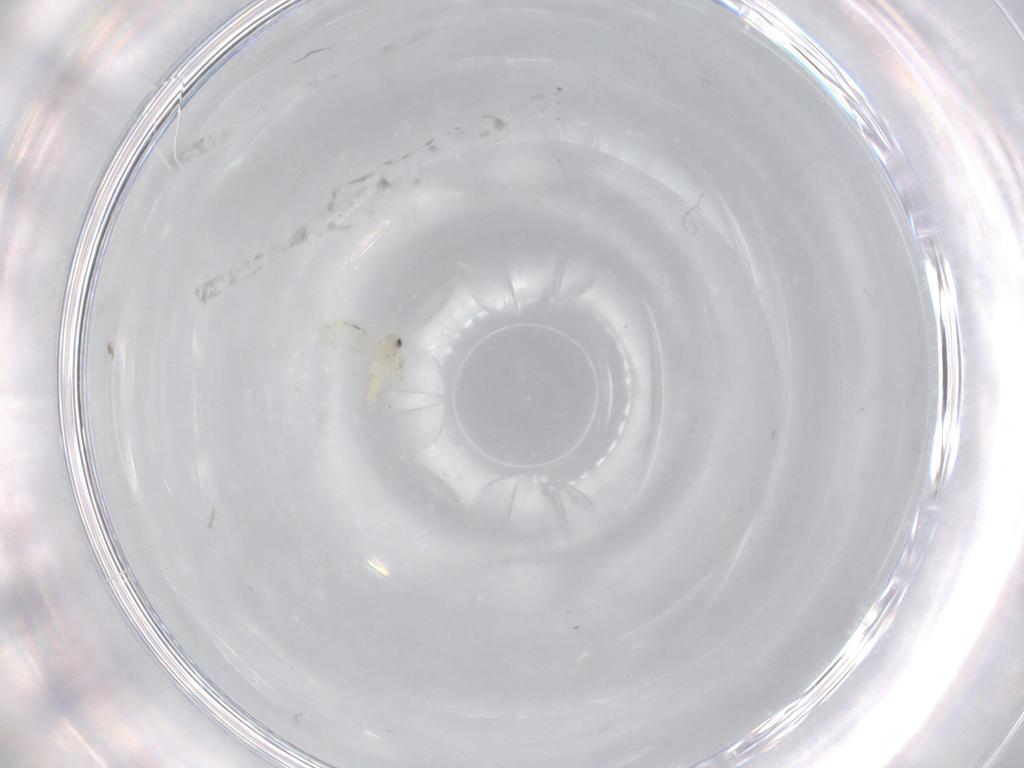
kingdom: Animalia
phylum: Arthropoda
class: Insecta
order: Hemiptera
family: Aleyrodidae
